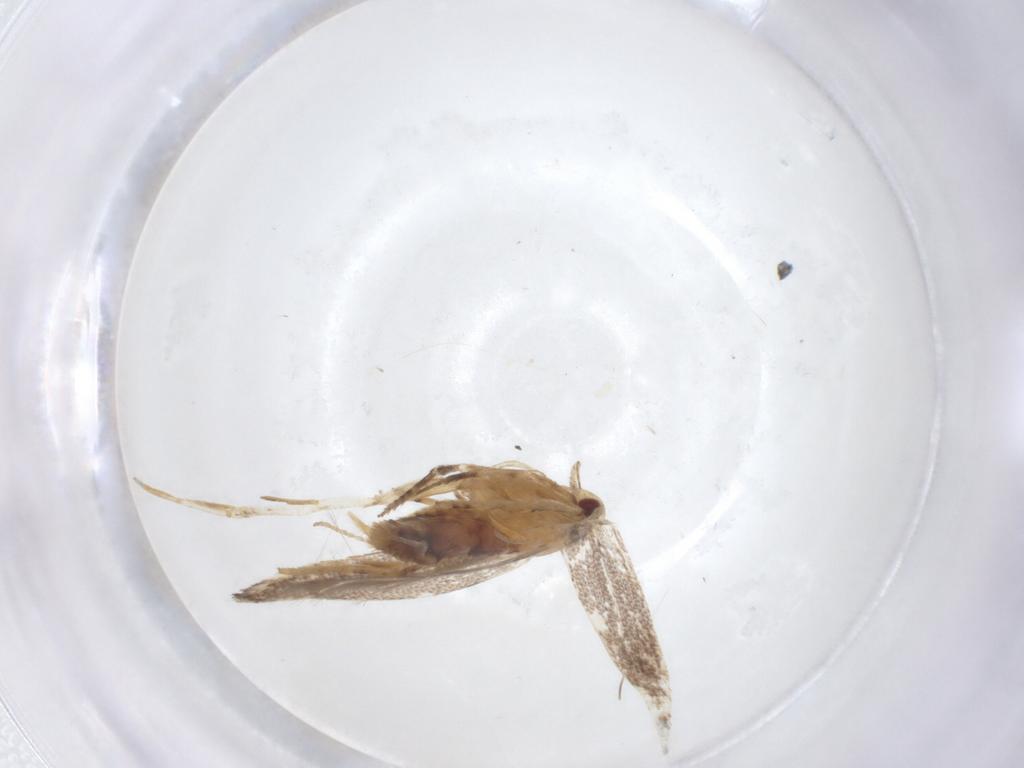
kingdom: Animalia
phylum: Arthropoda
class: Insecta
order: Lepidoptera
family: Cosmopterigidae
